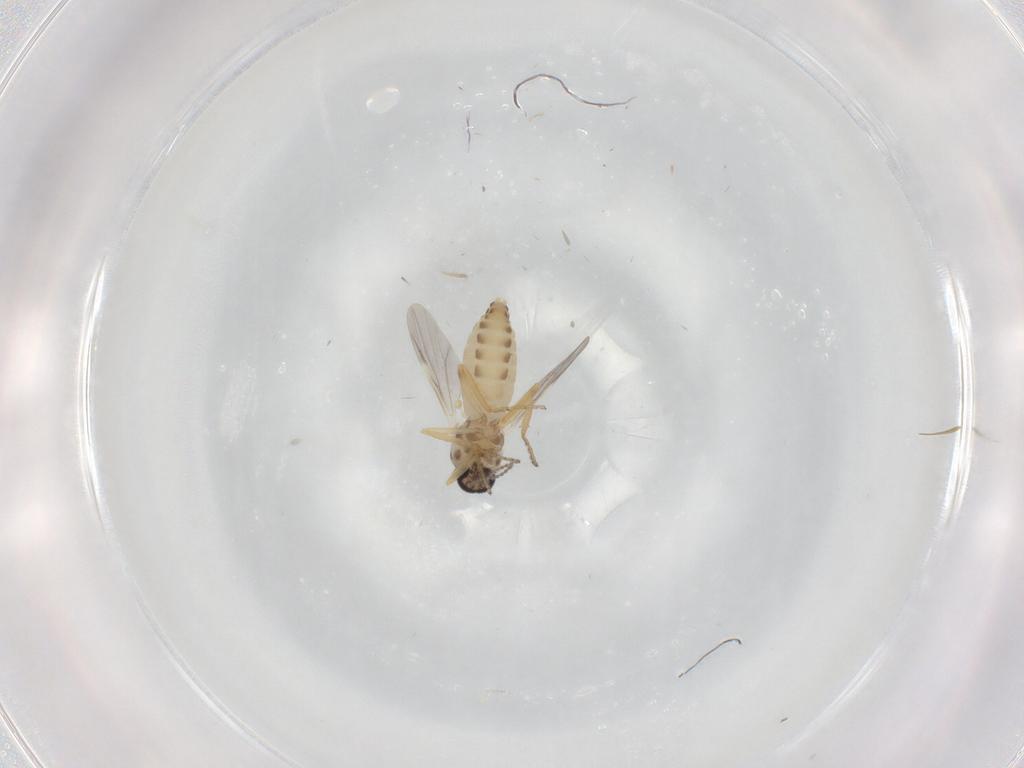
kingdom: Animalia
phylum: Arthropoda
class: Insecta
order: Diptera
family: Ceratopogonidae
